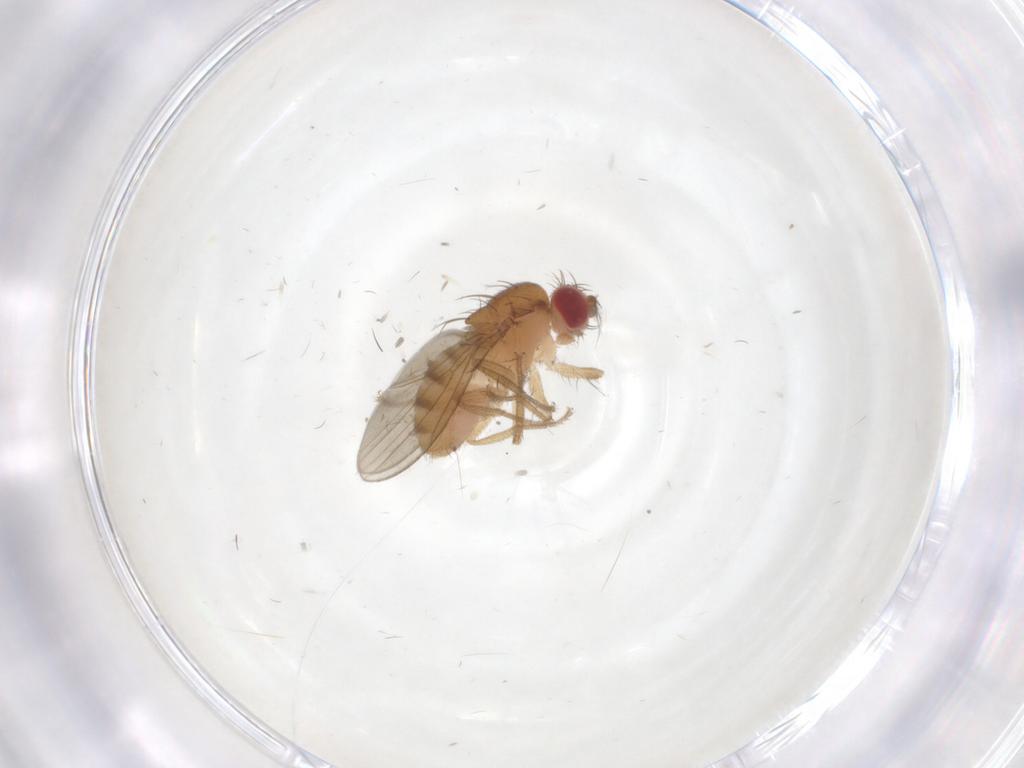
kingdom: Animalia
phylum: Arthropoda
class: Insecta
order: Diptera
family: Drosophilidae
